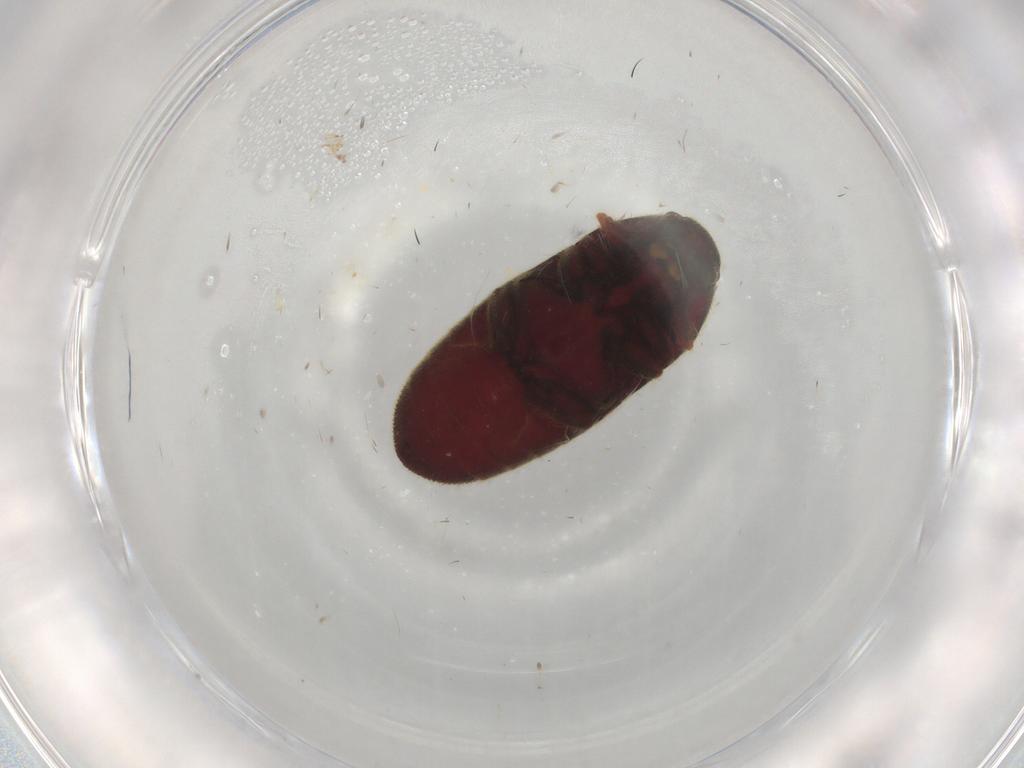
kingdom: Animalia
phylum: Arthropoda
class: Insecta
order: Coleoptera
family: Throscidae
